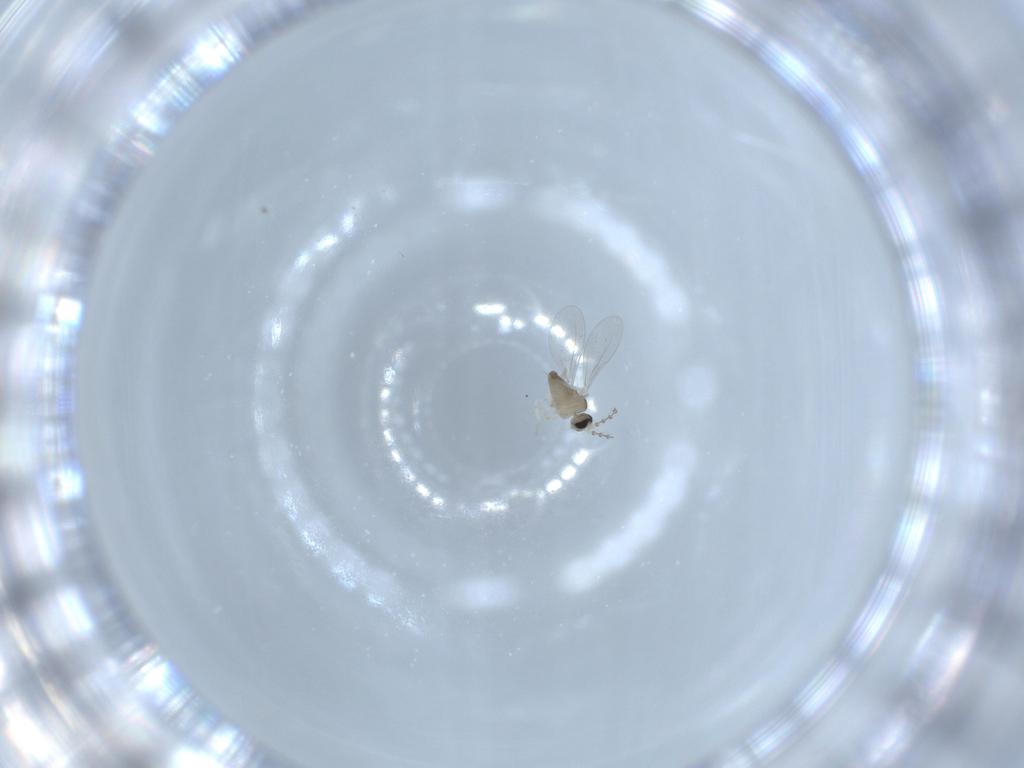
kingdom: Animalia
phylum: Arthropoda
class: Insecta
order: Diptera
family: Cecidomyiidae
